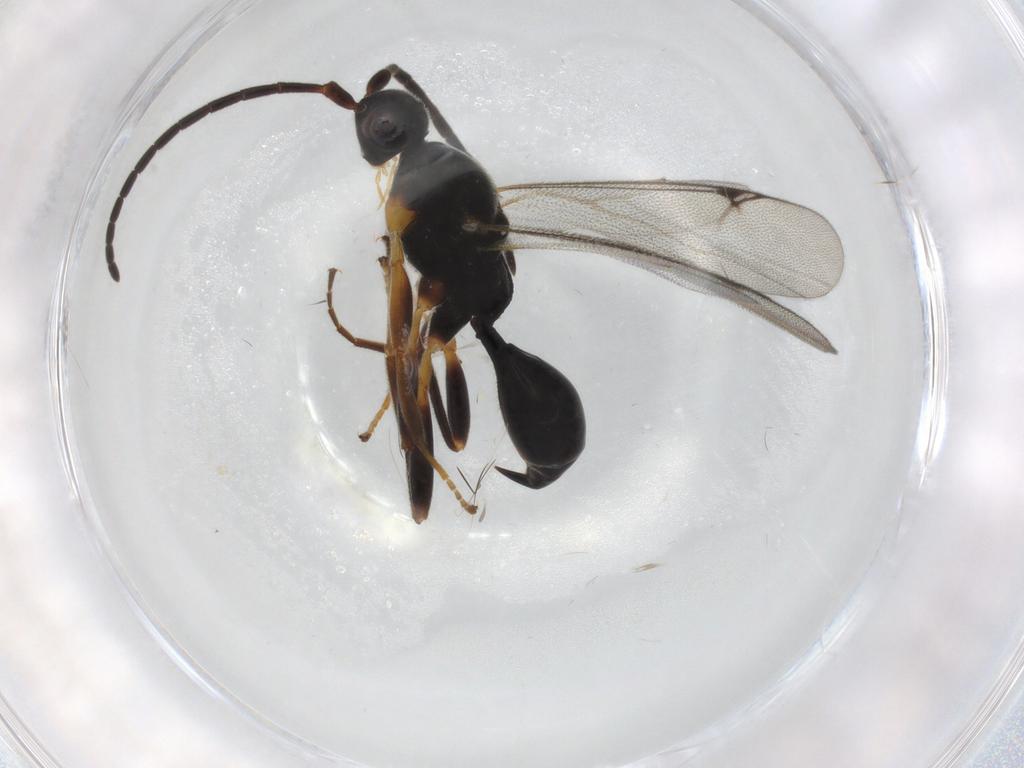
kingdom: Animalia
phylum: Arthropoda
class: Insecta
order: Hymenoptera
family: Proctotrupidae
